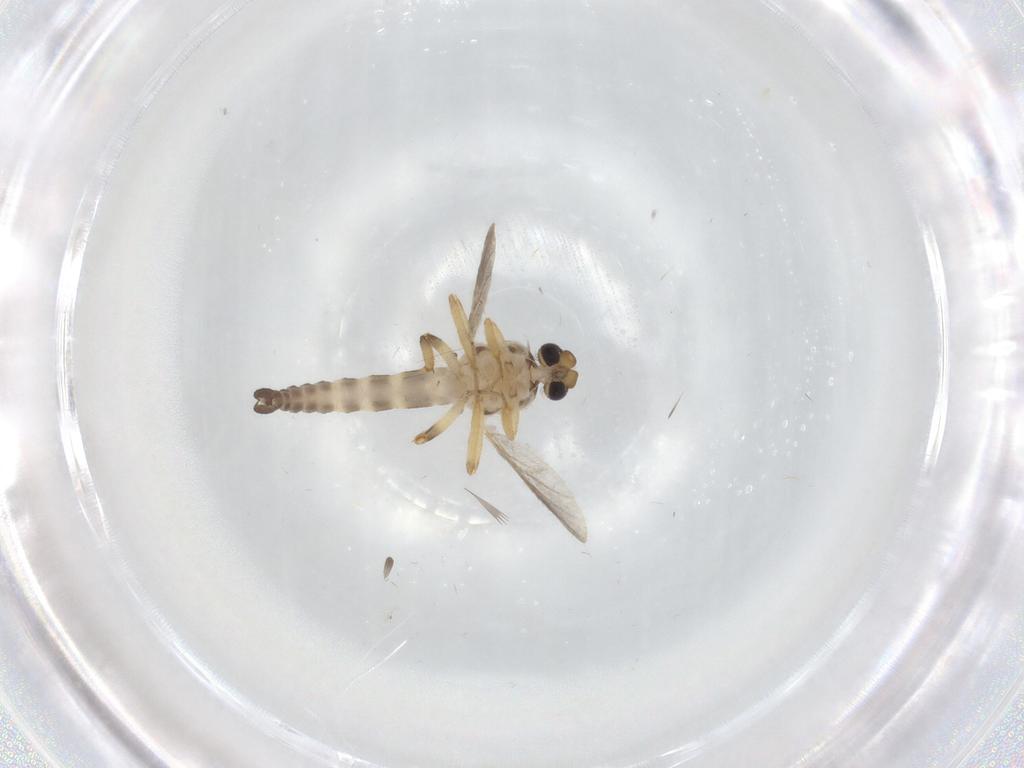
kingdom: Animalia
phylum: Arthropoda
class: Insecta
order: Diptera
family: Ceratopogonidae
